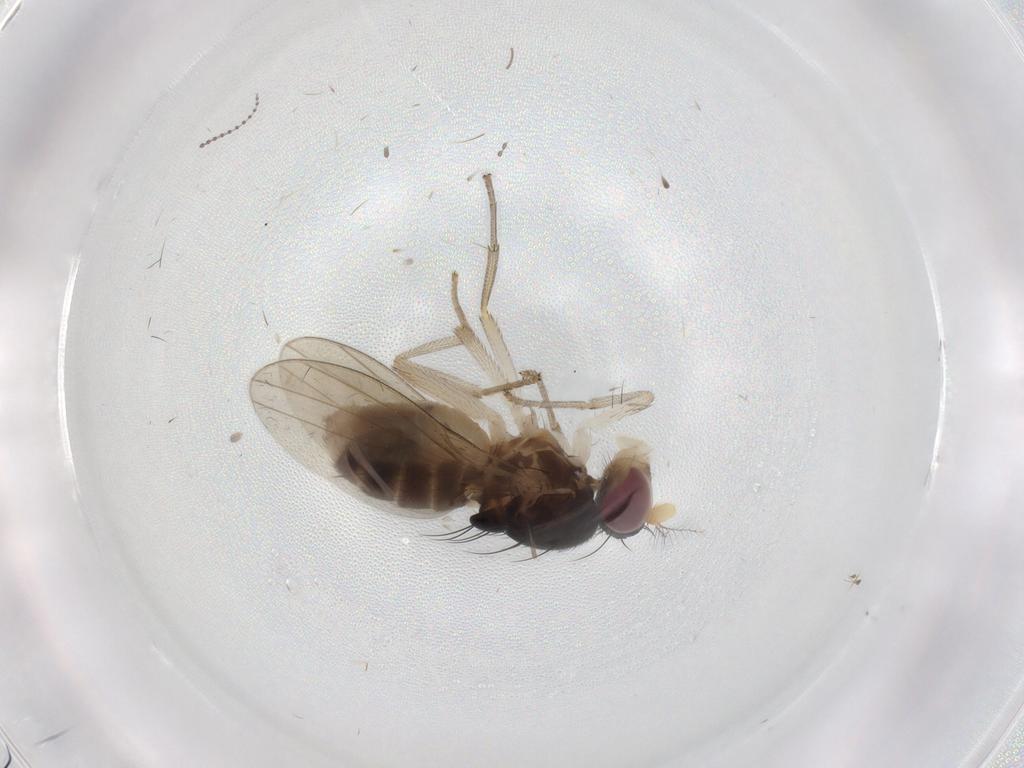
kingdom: Animalia
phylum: Arthropoda
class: Insecta
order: Diptera
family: Lauxaniidae
